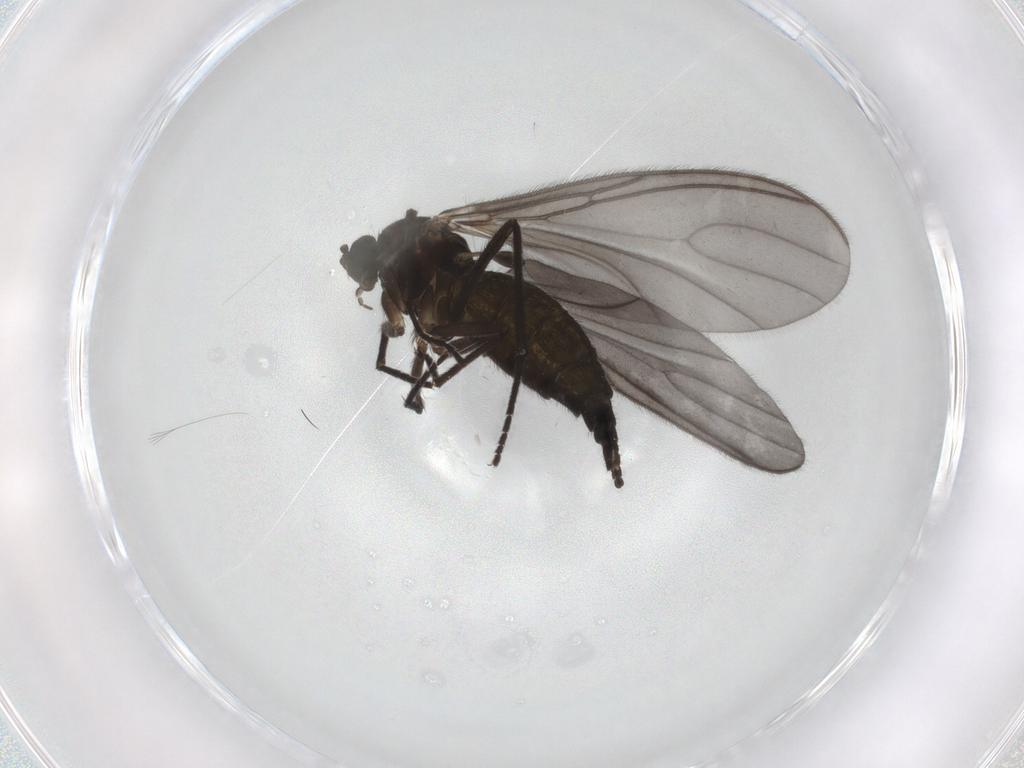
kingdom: Animalia
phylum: Arthropoda
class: Insecta
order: Diptera
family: Sciaridae
